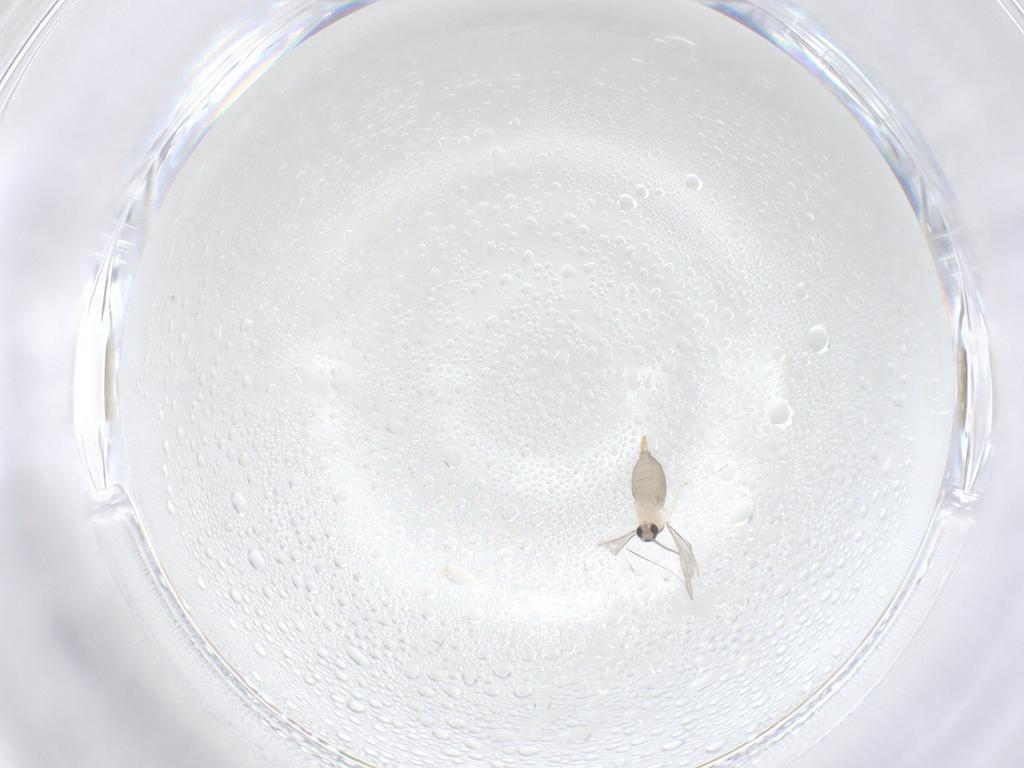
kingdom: Animalia
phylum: Arthropoda
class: Insecta
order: Diptera
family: Cecidomyiidae
